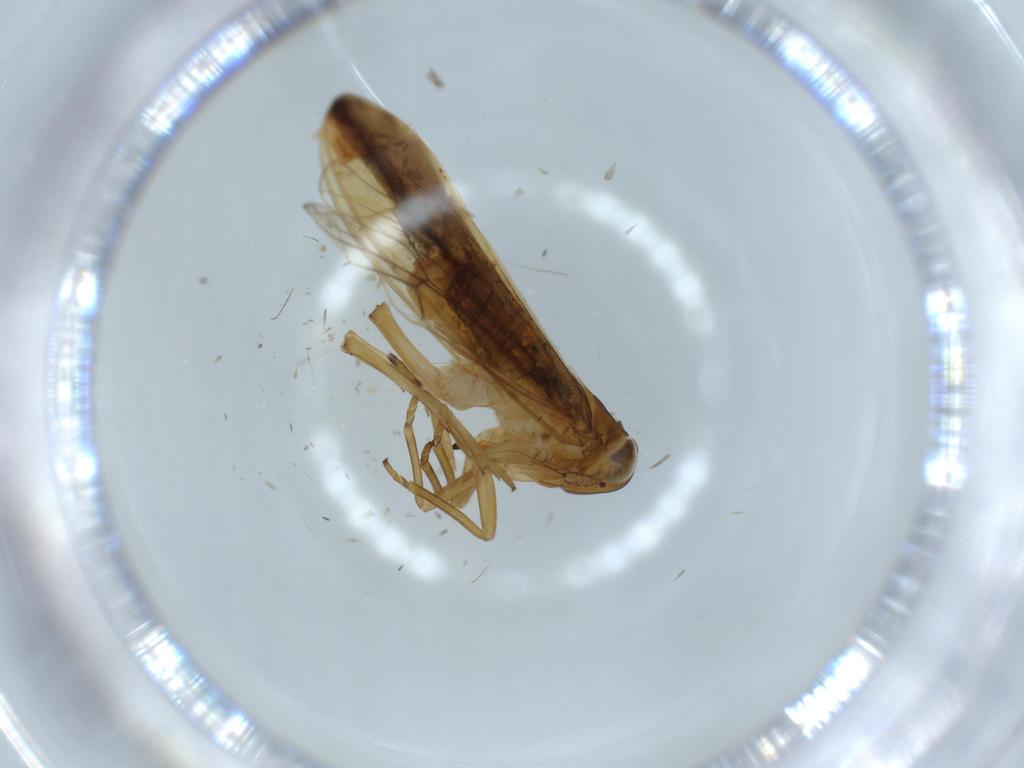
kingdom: Animalia
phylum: Arthropoda
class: Insecta
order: Hemiptera
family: Delphacidae
